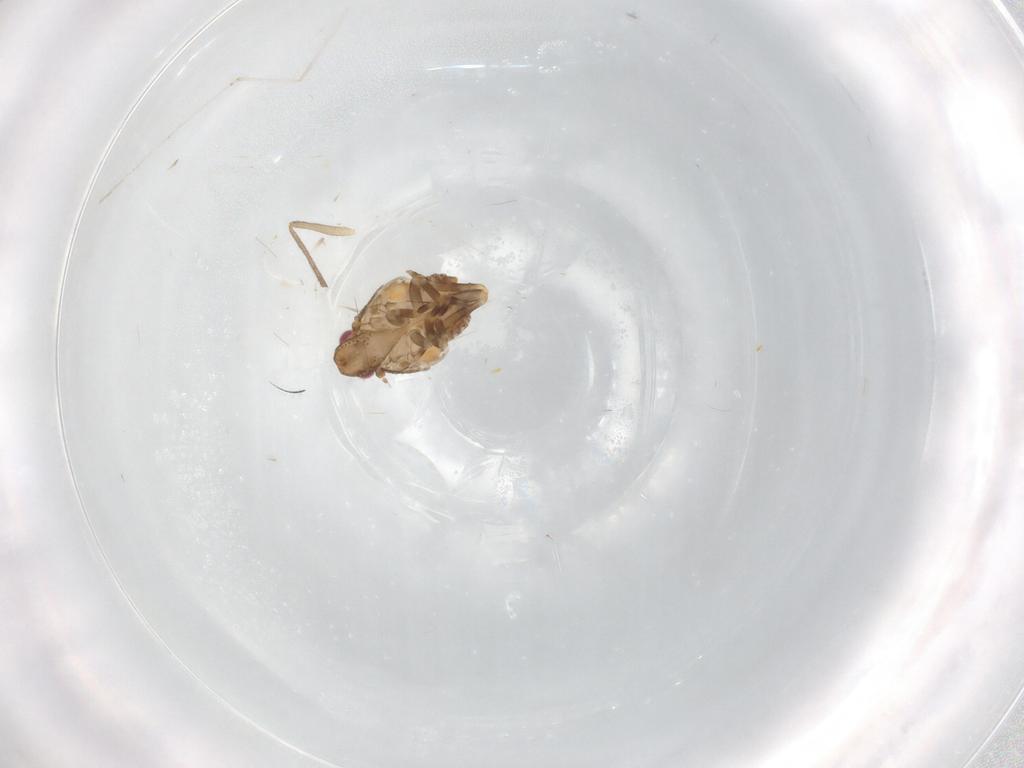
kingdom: Animalia
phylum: Arthropoda
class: Insecta
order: Hemiptera
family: Flatidae
